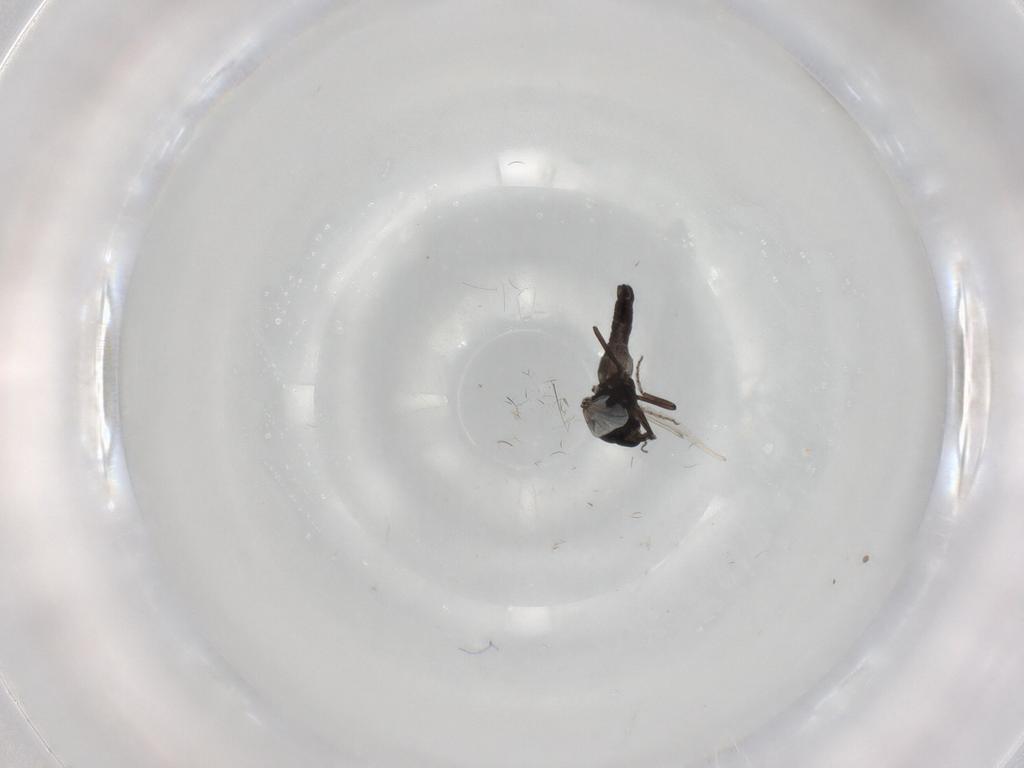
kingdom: Animalia
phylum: Arthropoda
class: Insecta
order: Diptera
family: Ceratopogonidae
